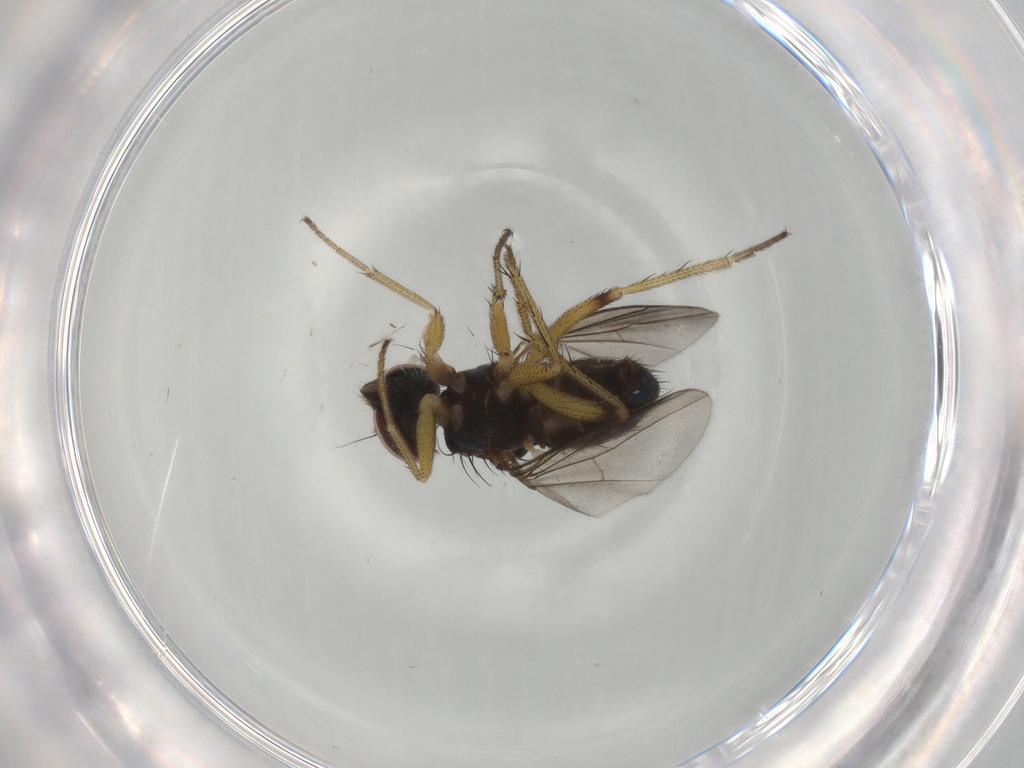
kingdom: Animalia
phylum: Arthropoda
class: Insecta
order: Diptera
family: Dolichopodidae
